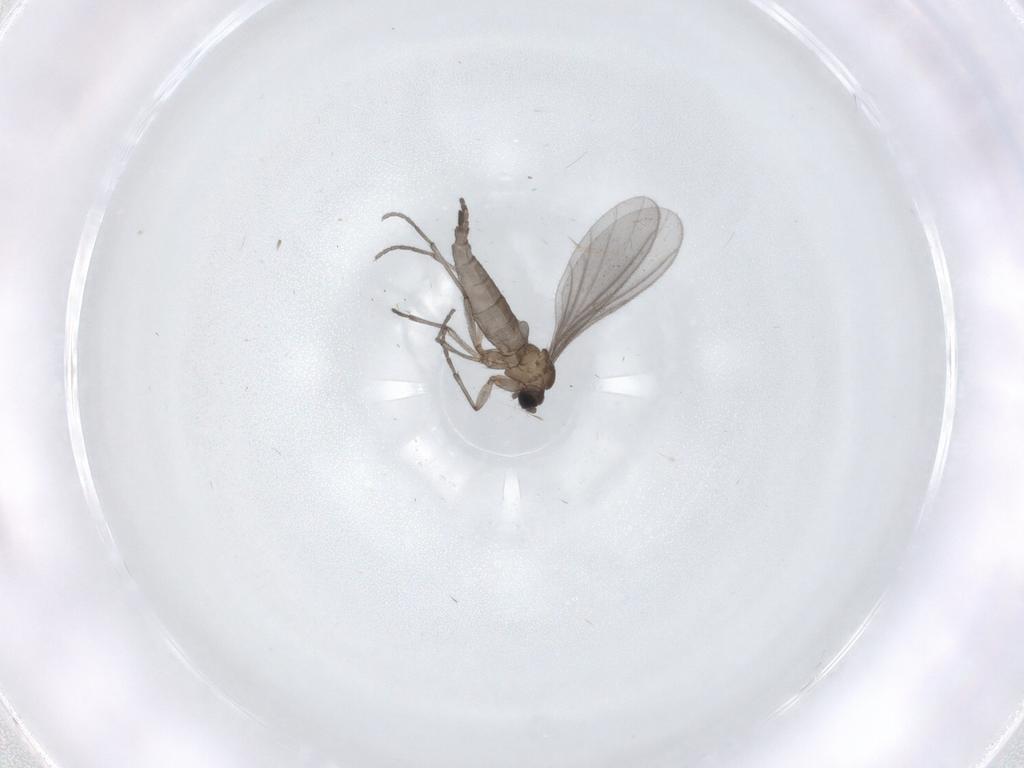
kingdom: Animalia
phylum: Arthropoda
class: Insecta
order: Diptera
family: Sciaridae
